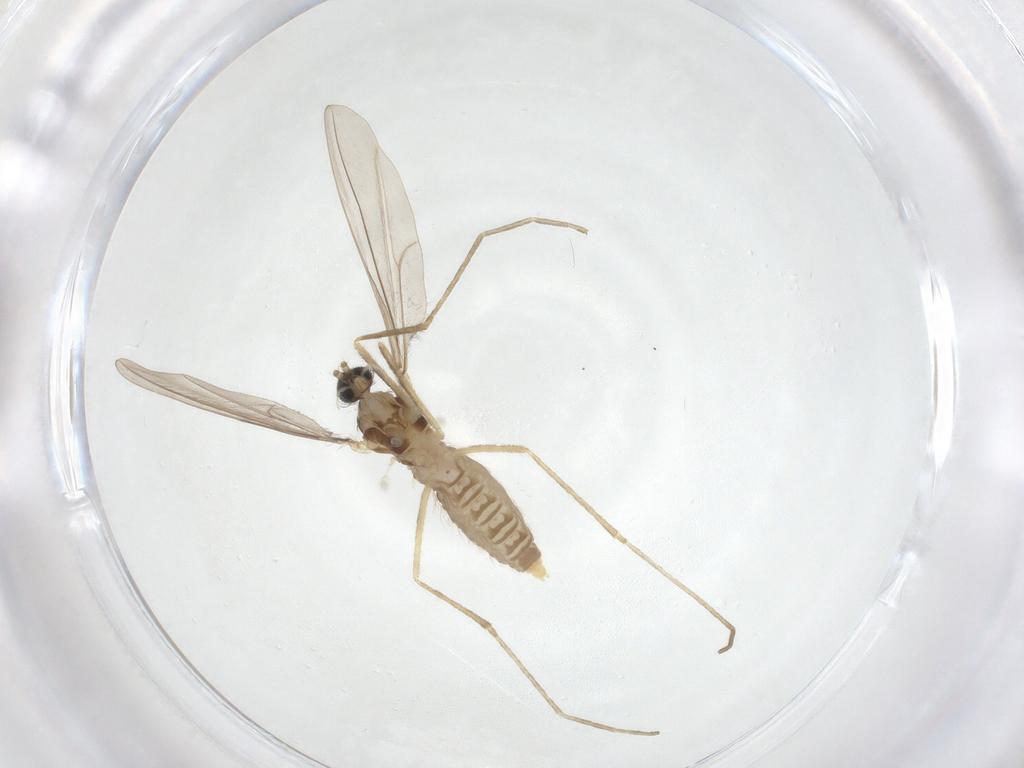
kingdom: Animalia
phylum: Arthropoda
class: Insecta
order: Diptera
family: Cecidomyiidae
